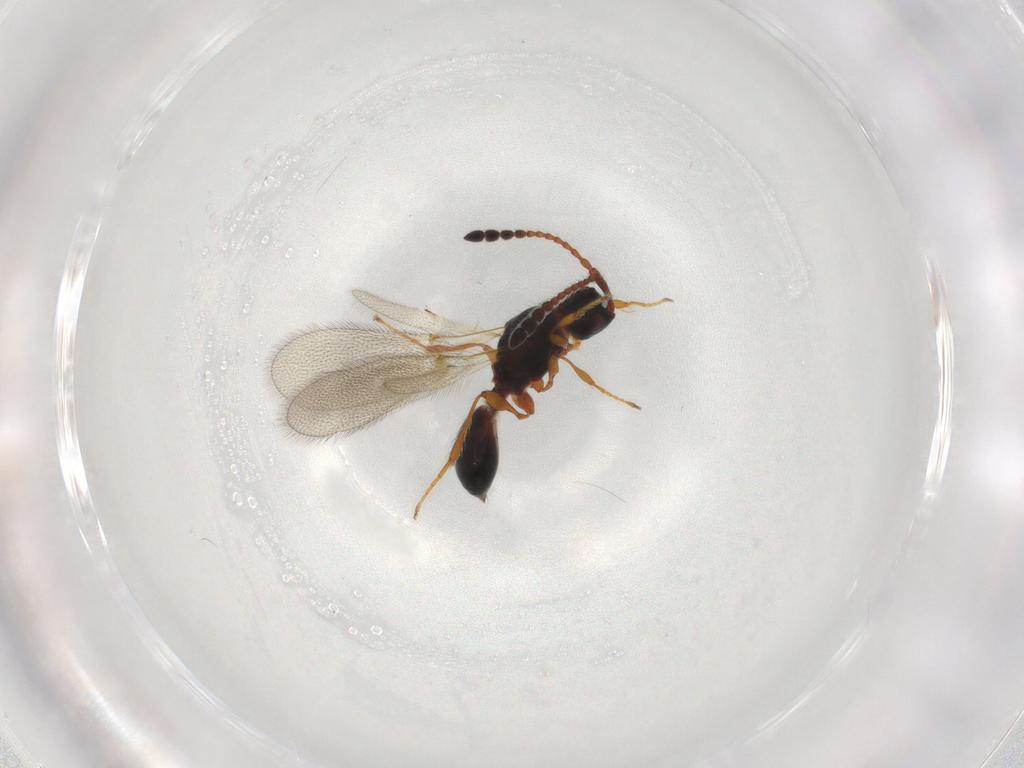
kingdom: Animalia
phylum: Arthropoda
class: Insecta
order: Hymenoptera
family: Diapriidae
